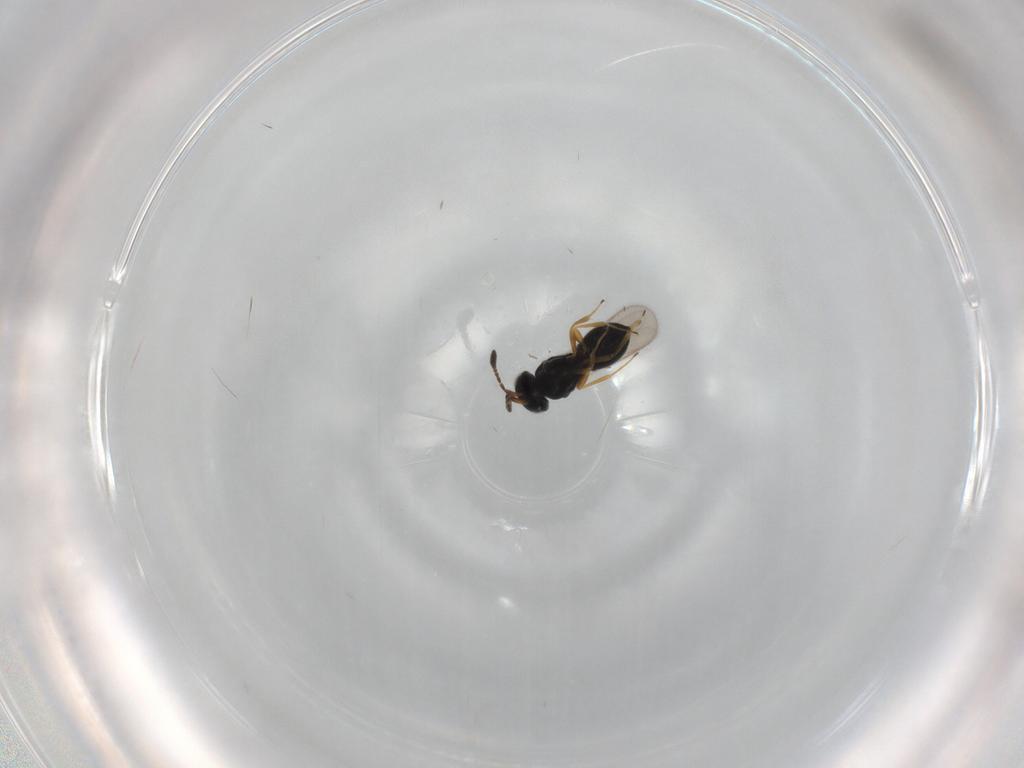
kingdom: Animalia
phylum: Arthropoda
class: Insecta
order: Hymenoptera
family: Scelionidae
